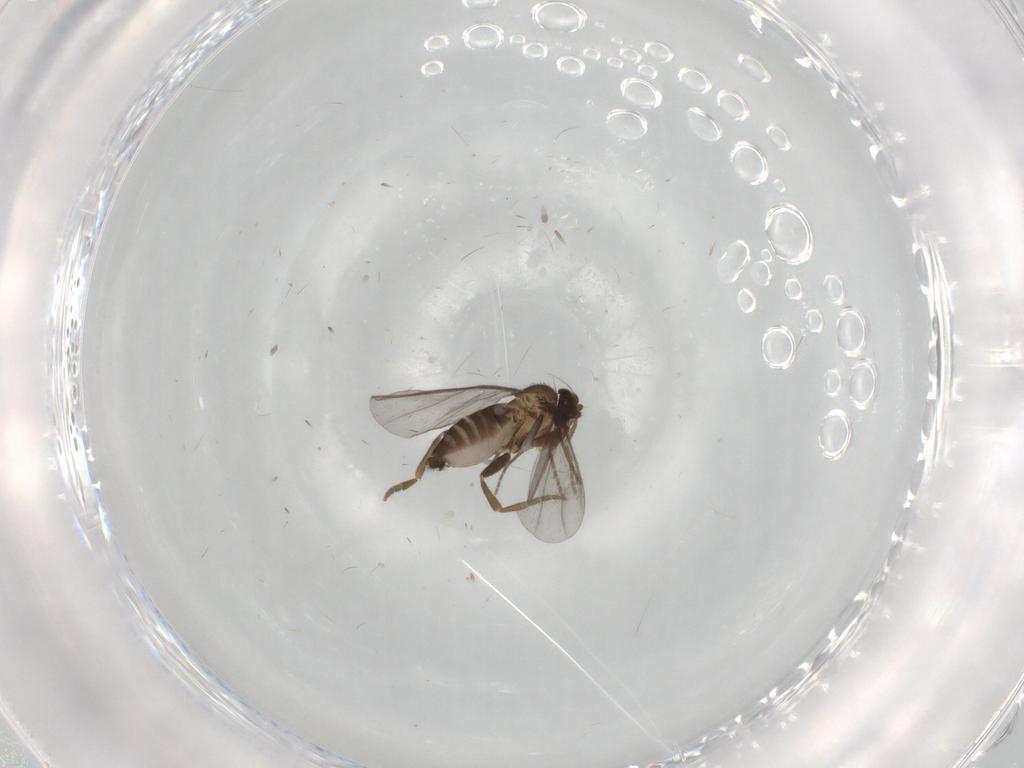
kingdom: Animalia
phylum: Arthropoda
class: Insecta
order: Diptera
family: Phoridae
